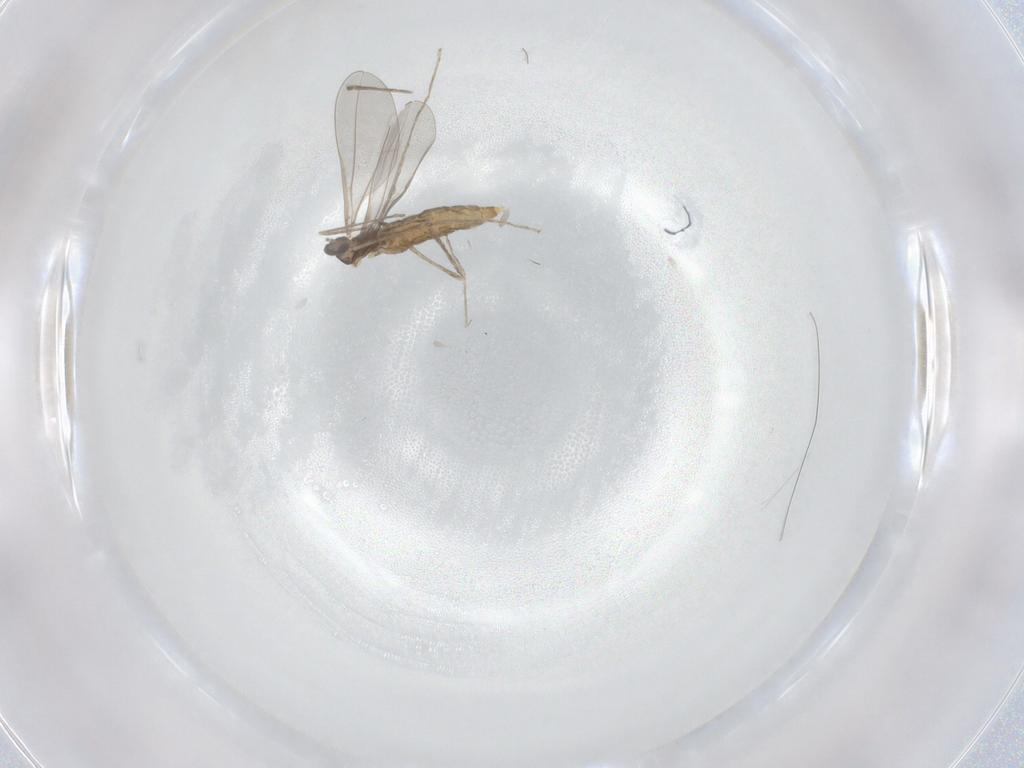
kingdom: Animalia
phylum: Arthropoda
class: Insecta
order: Diptera
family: Cecidomyiidae
